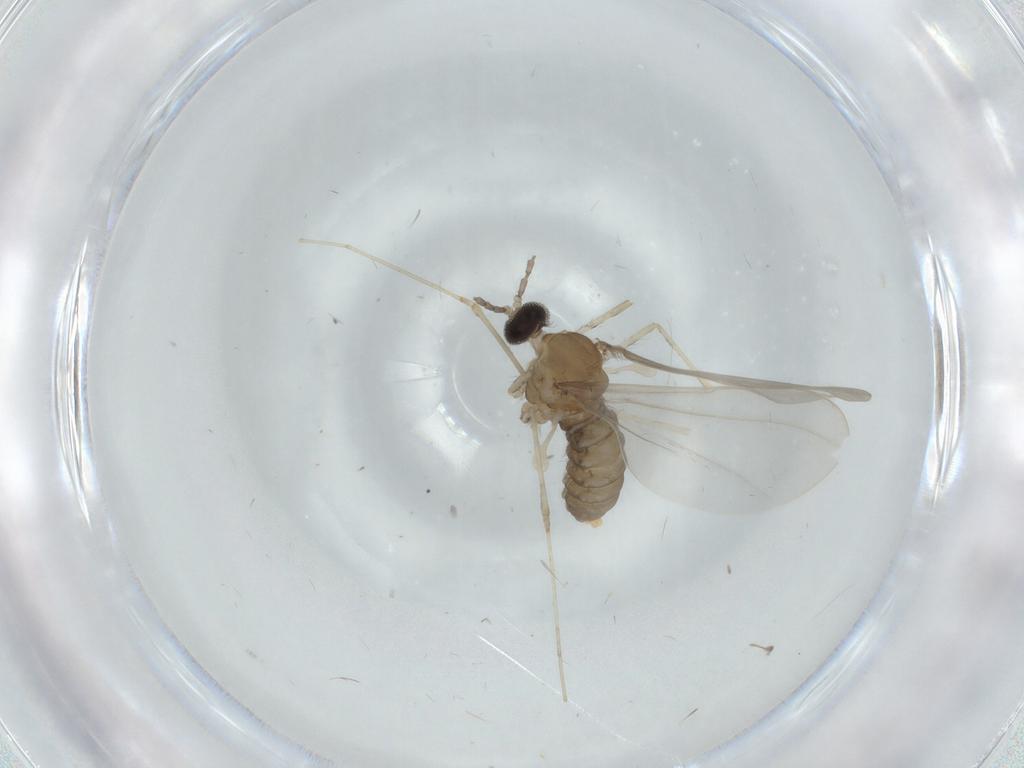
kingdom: Animalia
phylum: Arthropoda
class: Insecta
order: Diptera
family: Cecidomyiidae
